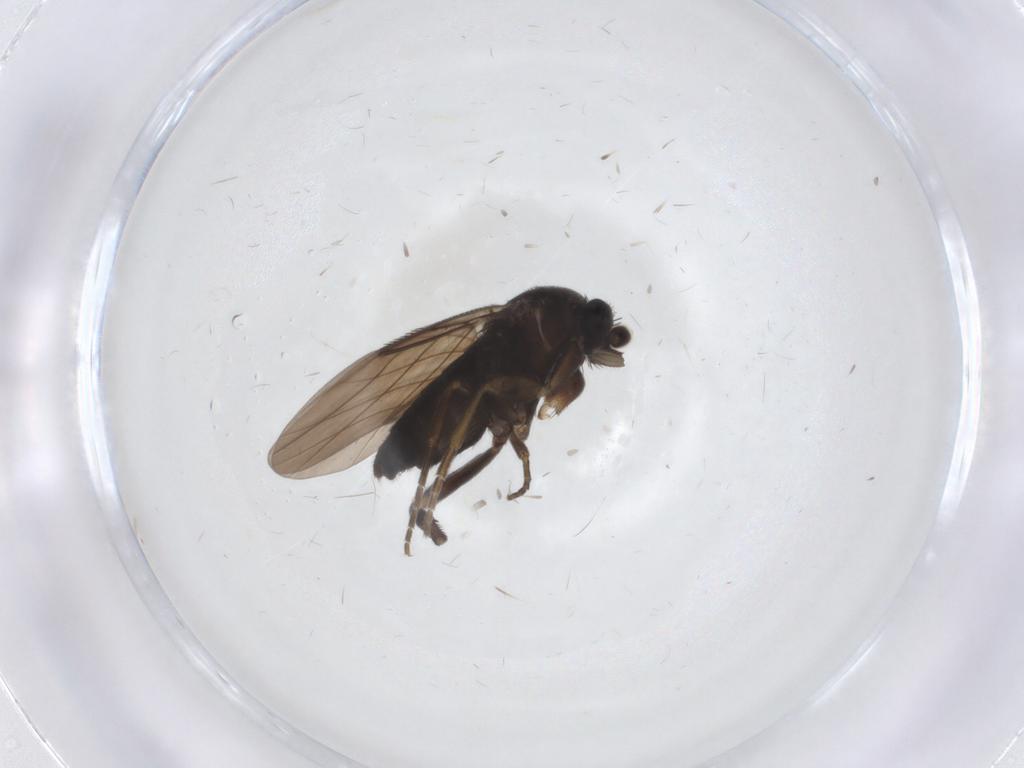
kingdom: Animalia
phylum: Arthropoda
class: Insecta
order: Diptera
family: Phoridae
